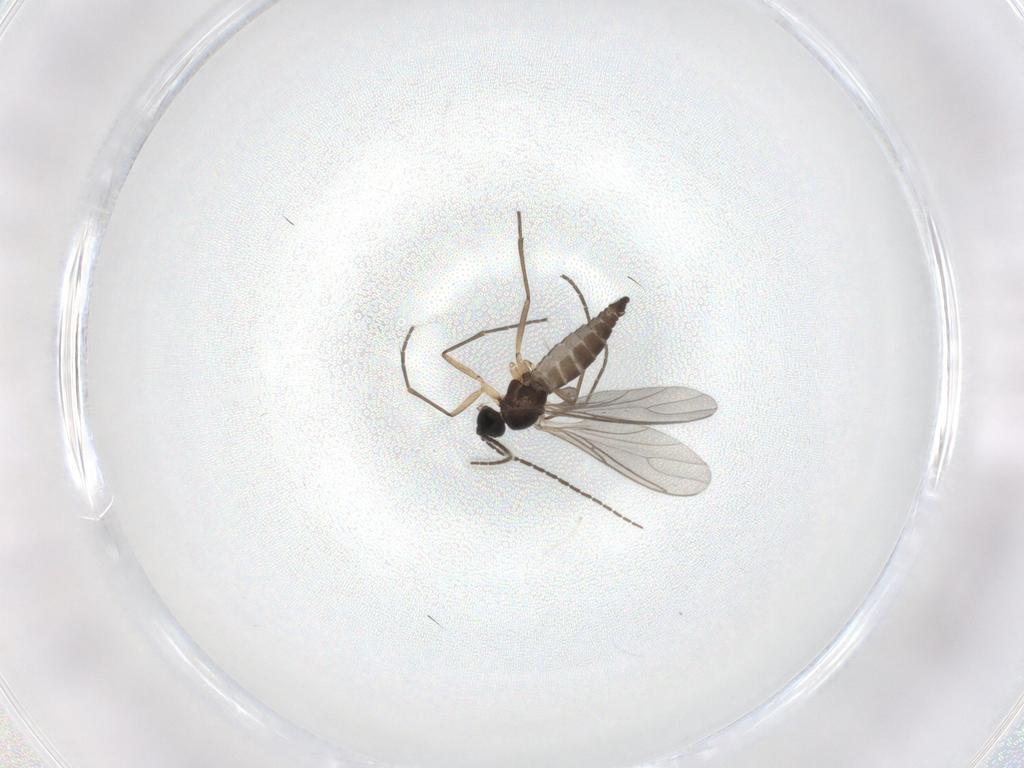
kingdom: Animalia
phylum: Arthropoda
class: Insecta
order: Diptera
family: Sciaridae
